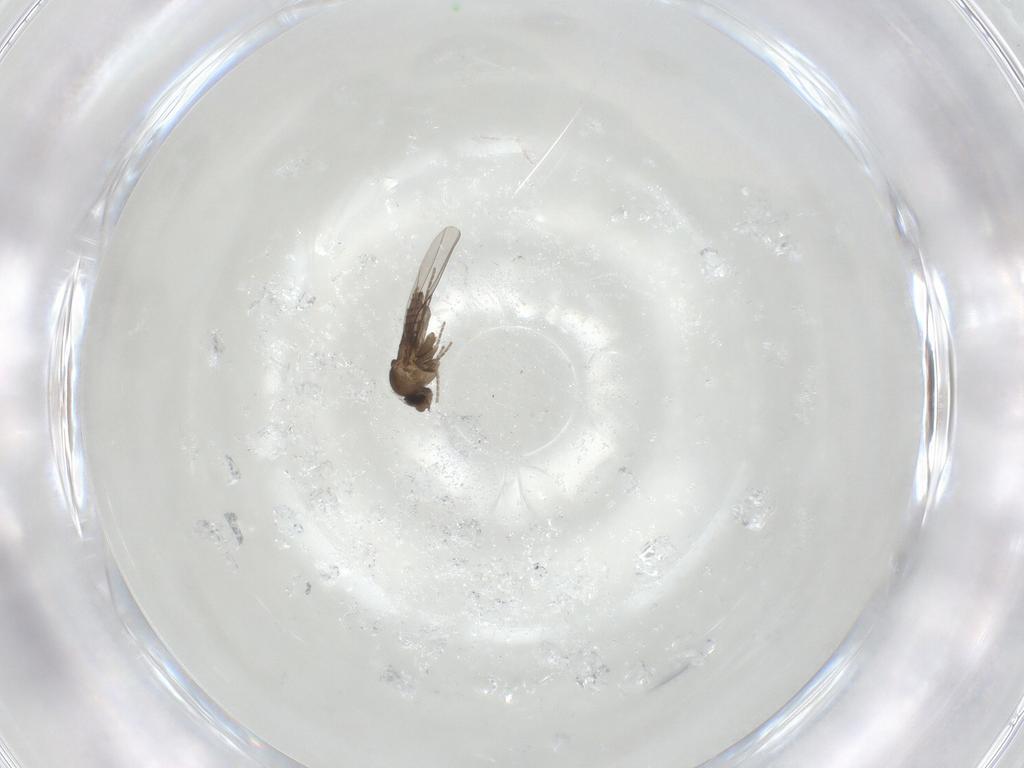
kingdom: Animalia
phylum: Arthropoda
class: Insecta
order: Diptera
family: Phoridae
